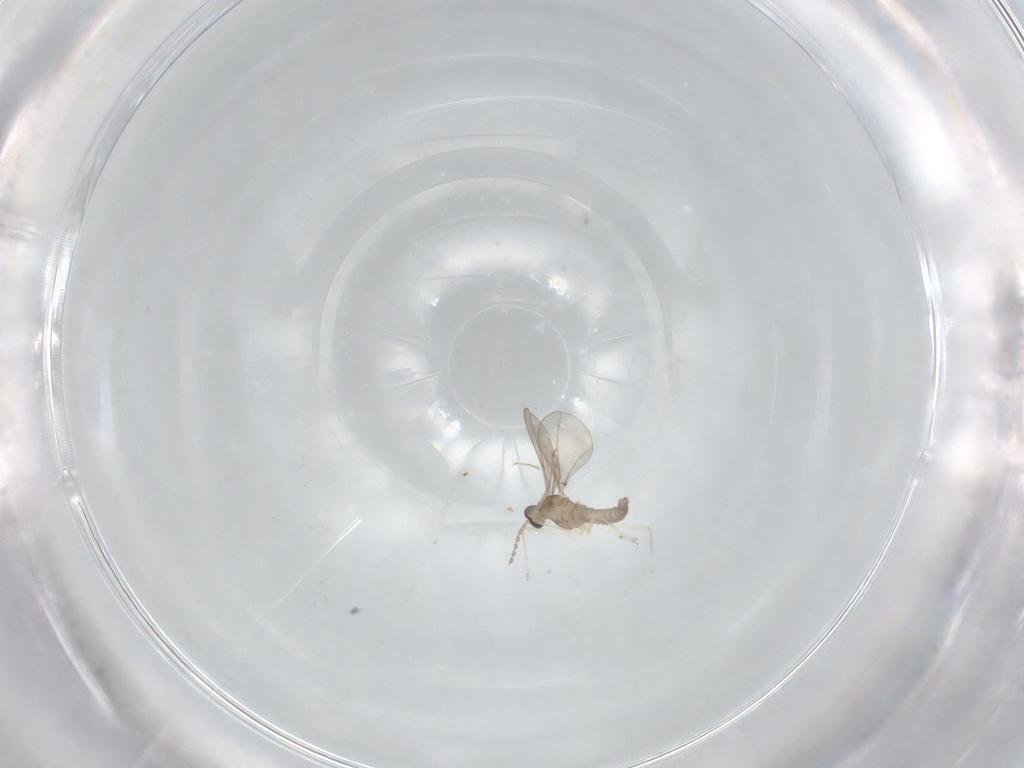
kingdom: Animalia
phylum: Arthropoda
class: Insecta
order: Diptera
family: Cecidomyiidae
